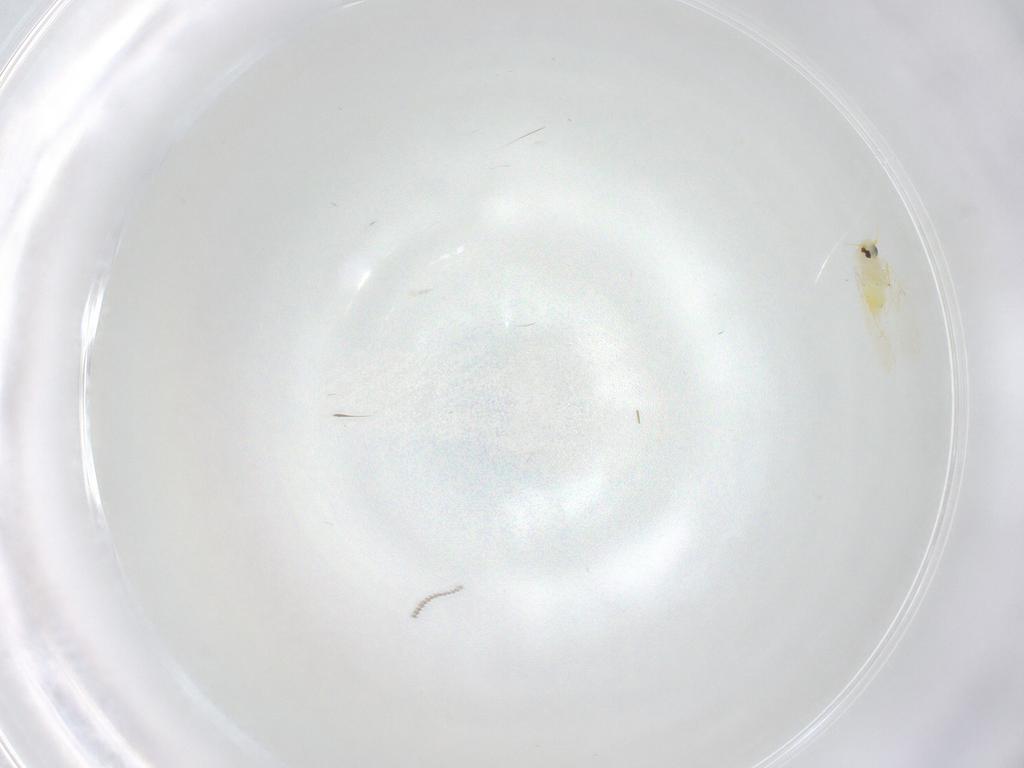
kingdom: Animalia
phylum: Arthropoda
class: Insecta
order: Diptera
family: Cecidomyiidae
